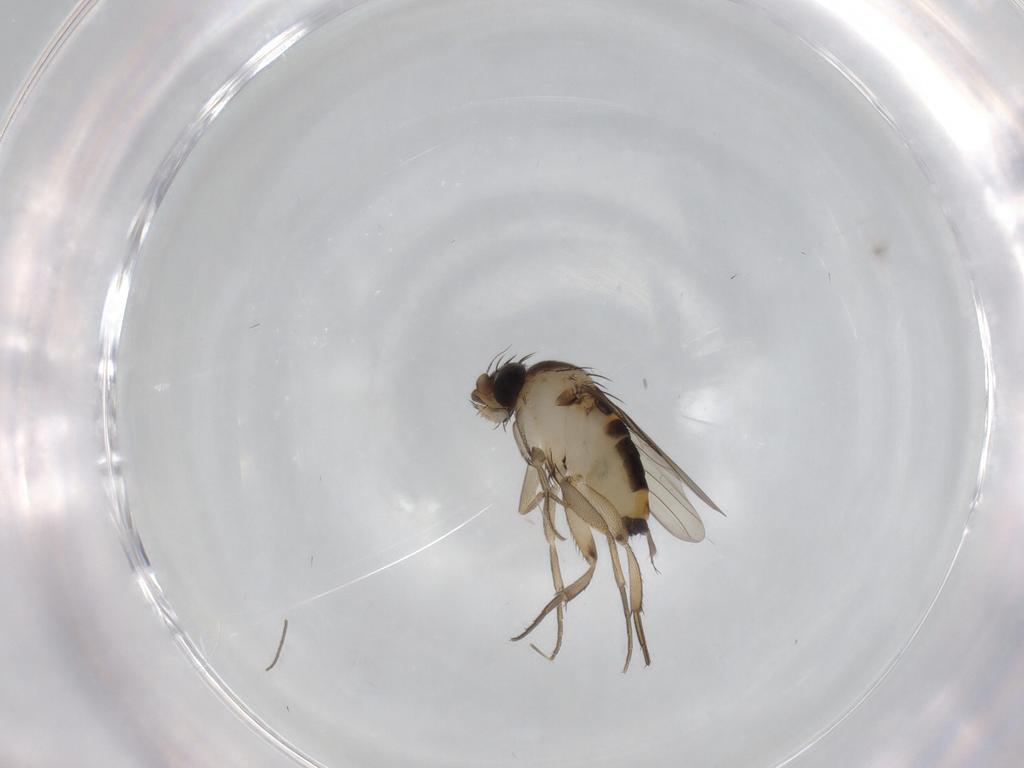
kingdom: Animalia
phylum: Arthropoda
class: Insecta
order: Diptera
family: Phoridae
